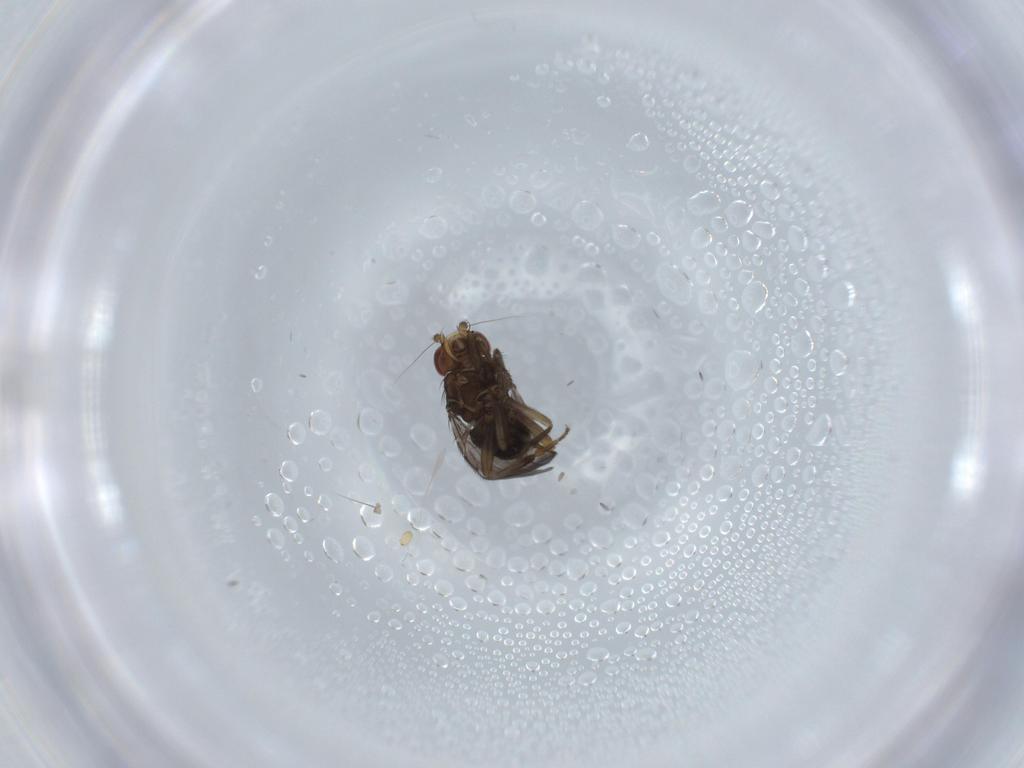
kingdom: Animalia
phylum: Arthropoda
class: Insecta
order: Diptera
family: Sphaeroceridae
